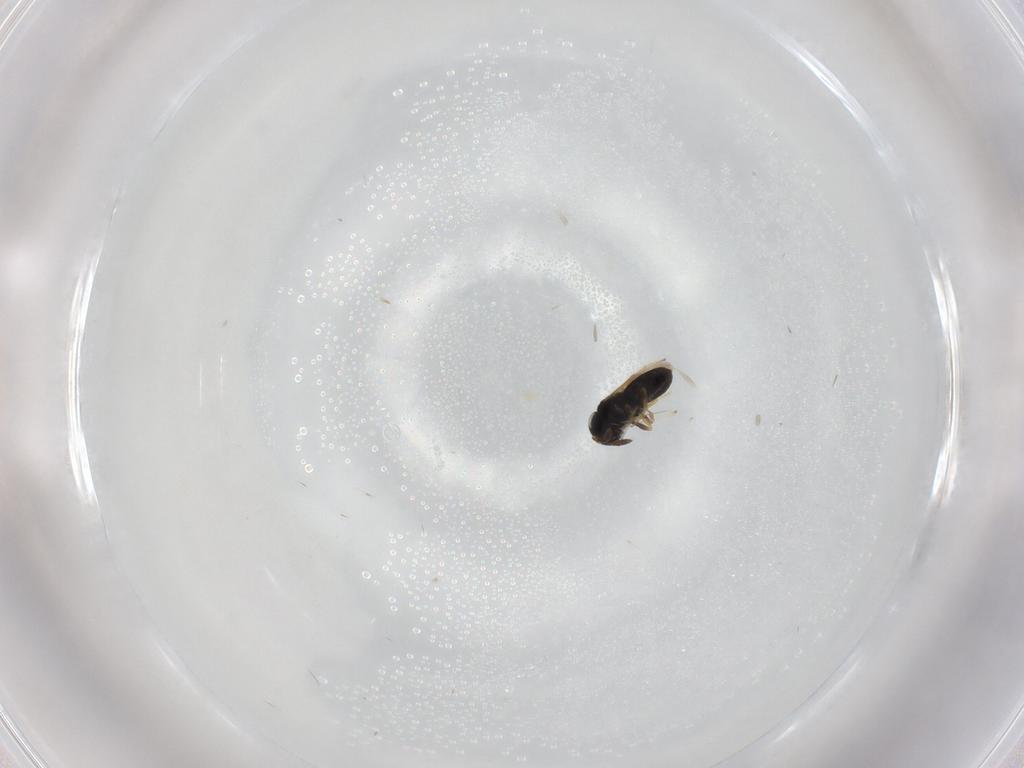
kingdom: Animalia
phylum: Arthropoda
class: Insecta
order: Hymenoptera
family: Scelionidae
